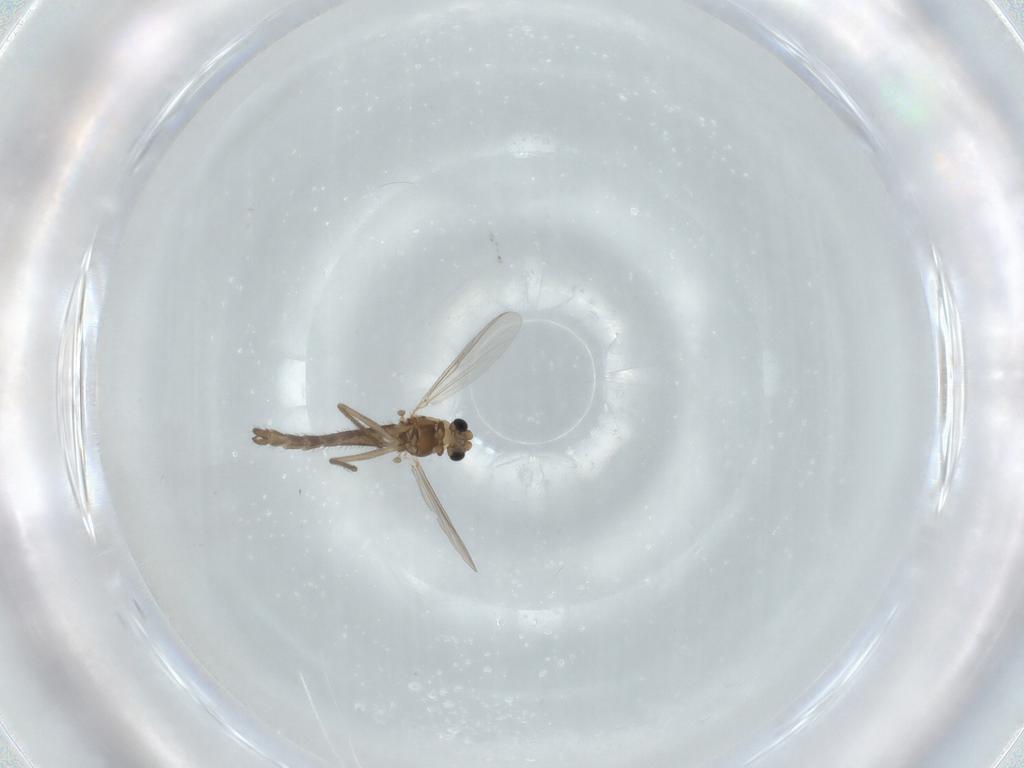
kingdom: Animalia
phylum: Arthropoda
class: Insecta
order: Diptera
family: Chironomidae
